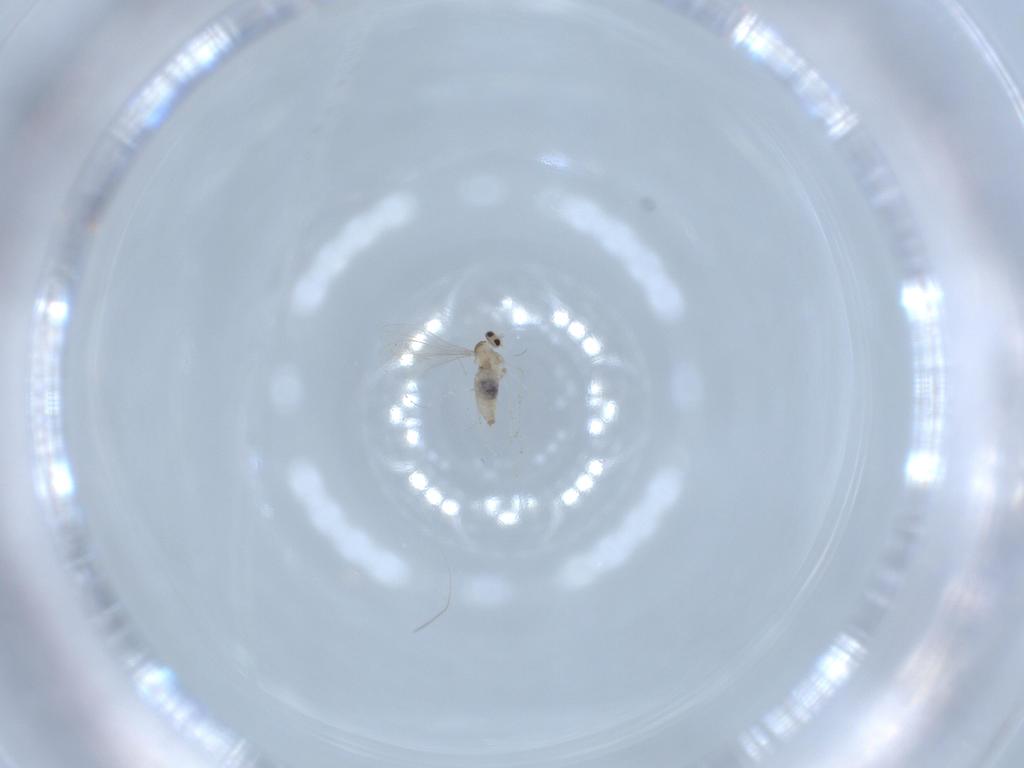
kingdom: Animalia
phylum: Arthropoda
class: Insecta
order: Diptera
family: Cecidomyiidae
